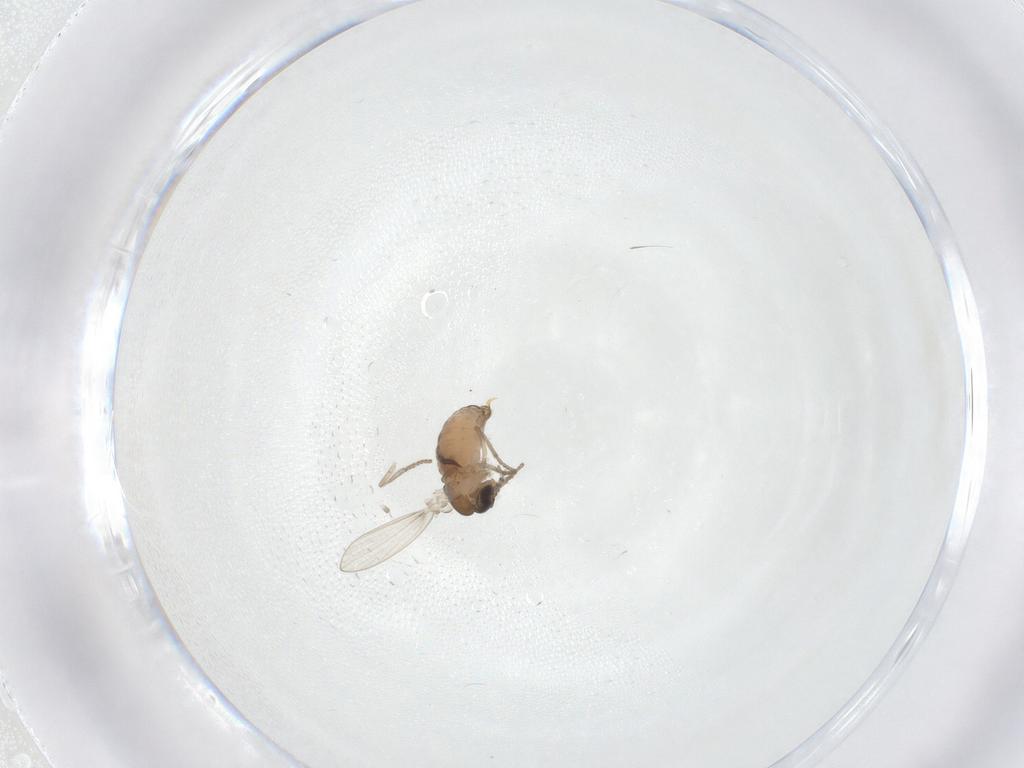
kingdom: Animalia
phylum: Arthropoda
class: Insecta
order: Diptera
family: Psychodidae
